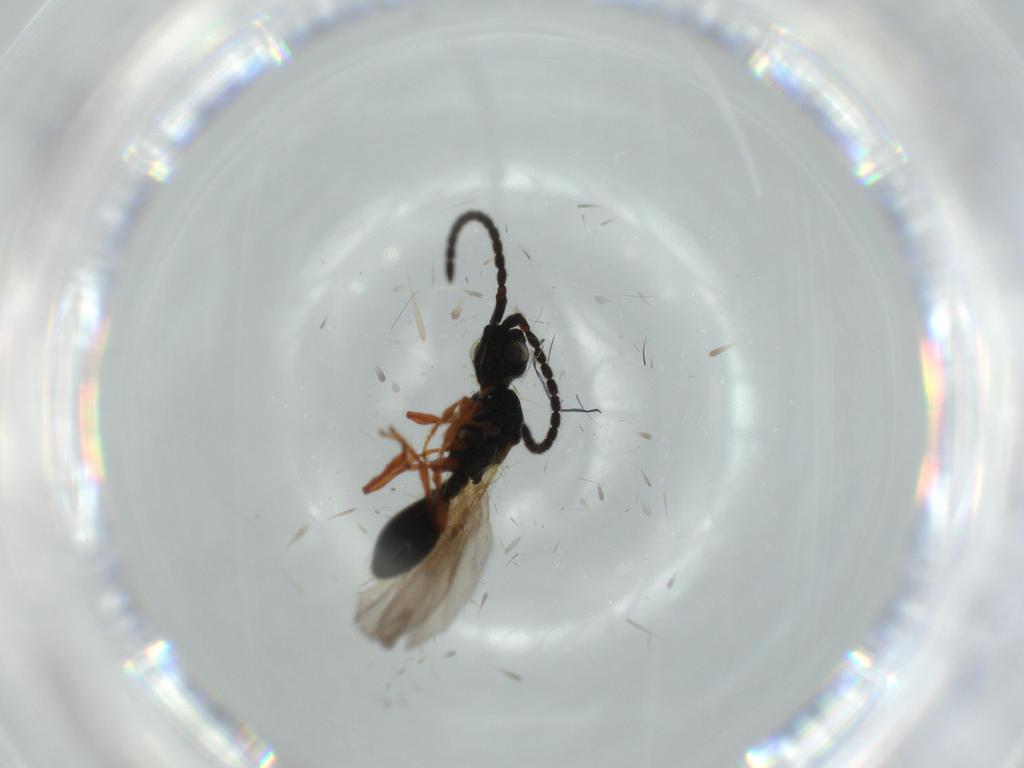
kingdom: Animalia
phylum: Arthropoda
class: Insecta
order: Hymenoptera
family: Diapriidae
